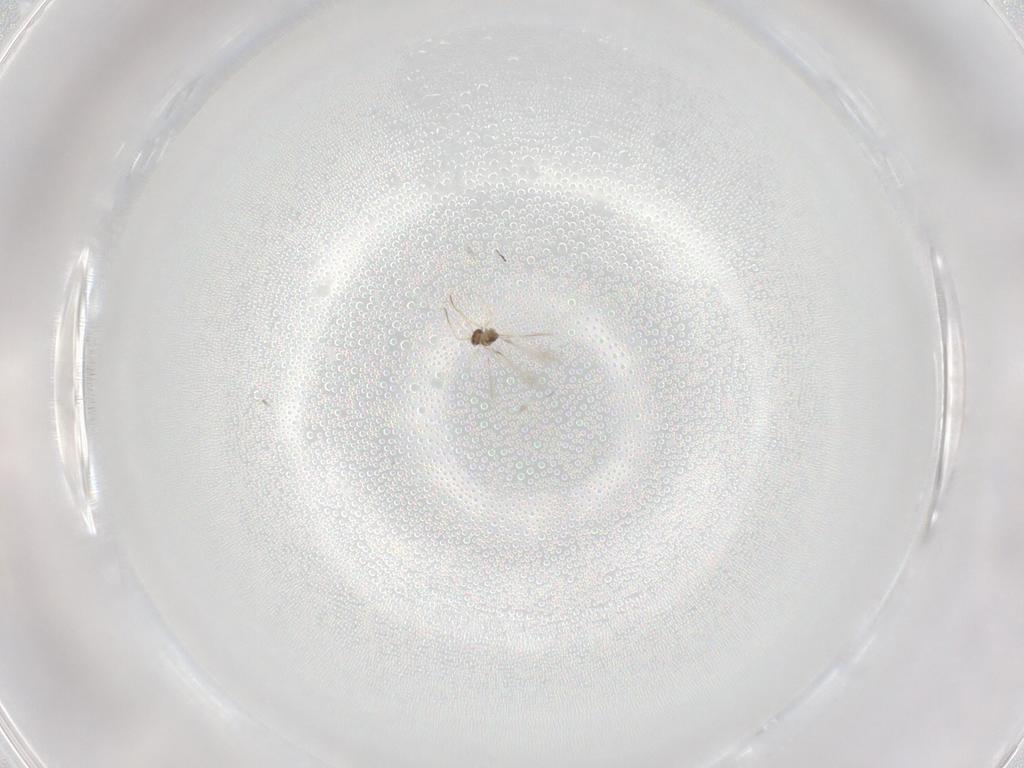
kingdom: Animalia
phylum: Arthropoda
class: Insecta
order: Hymenoptera
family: Mymaridae
